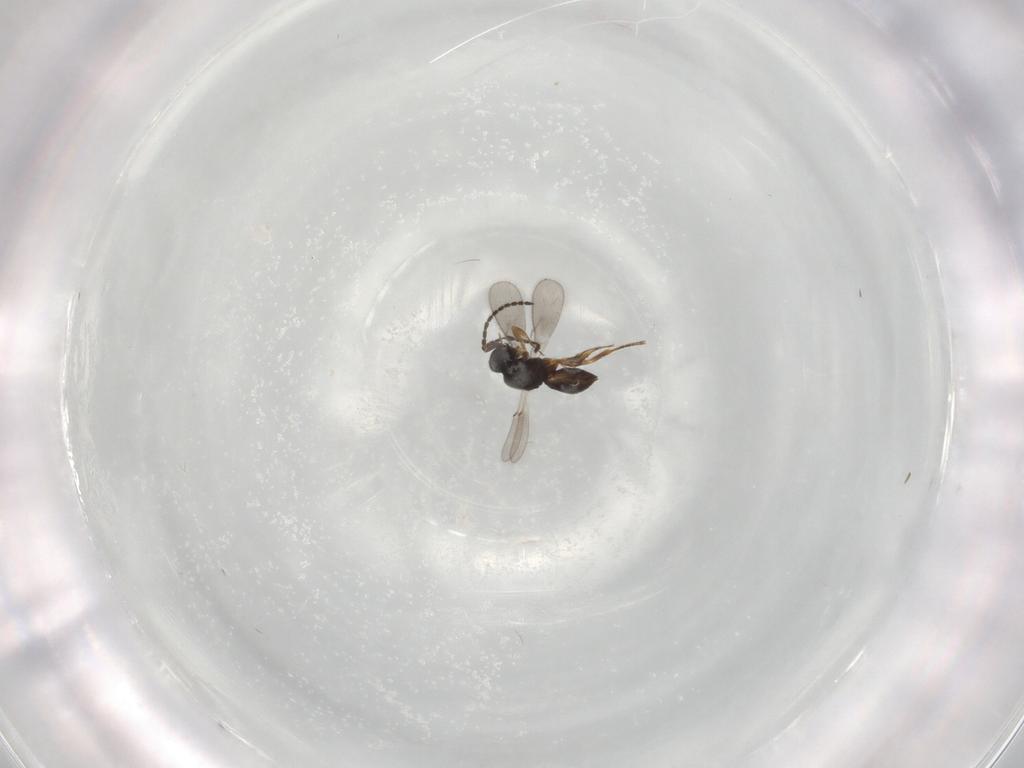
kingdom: Animalia
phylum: Arthropoda
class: Insecta
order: Hymenoptera
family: Scelionidae
